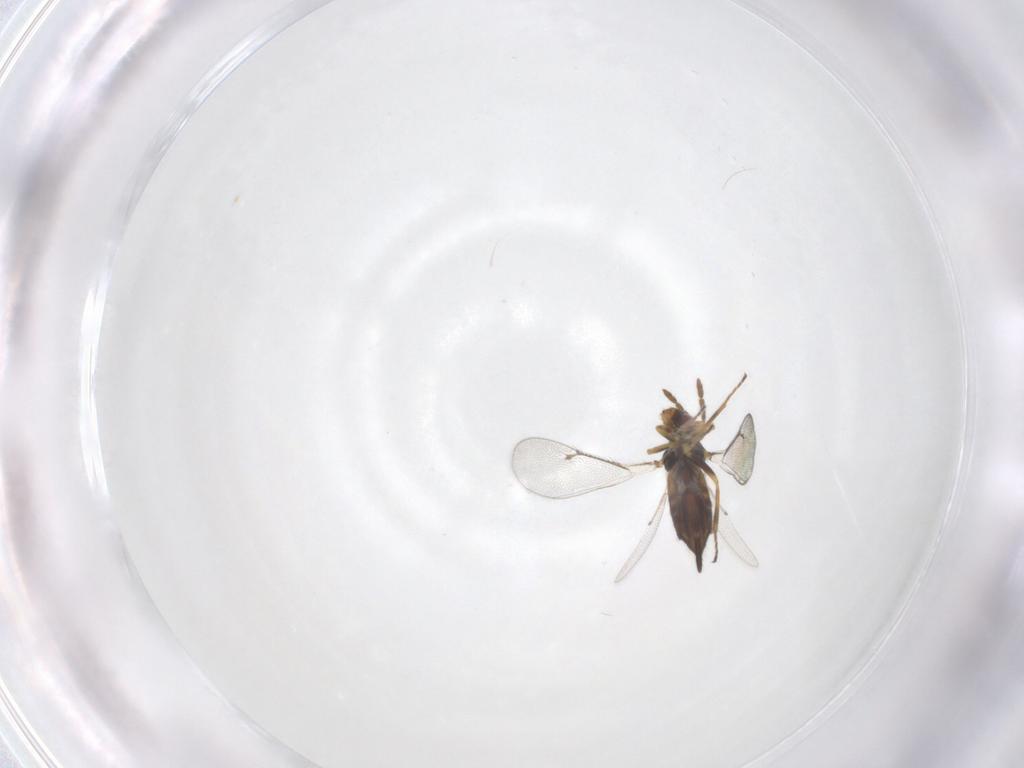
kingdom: Animalia
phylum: Arthropoda
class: Insecta
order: Hymenoptera
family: Eulophidae
